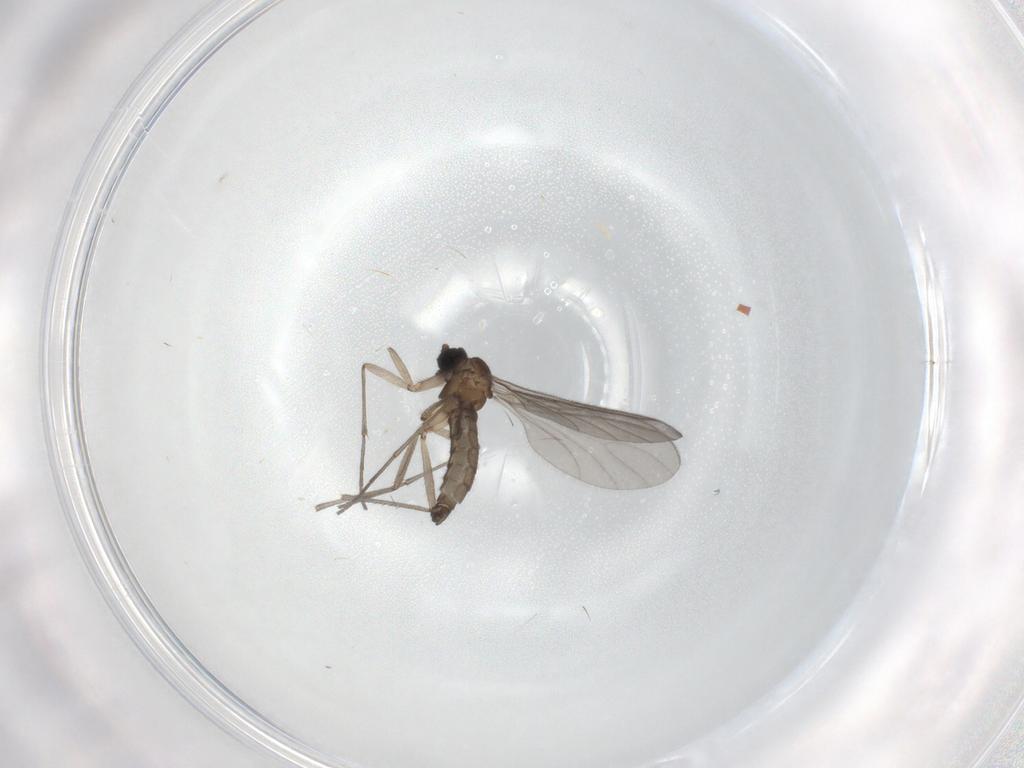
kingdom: Animalia
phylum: Arthropoda
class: Insecta
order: Diptera
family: Sciaridae
